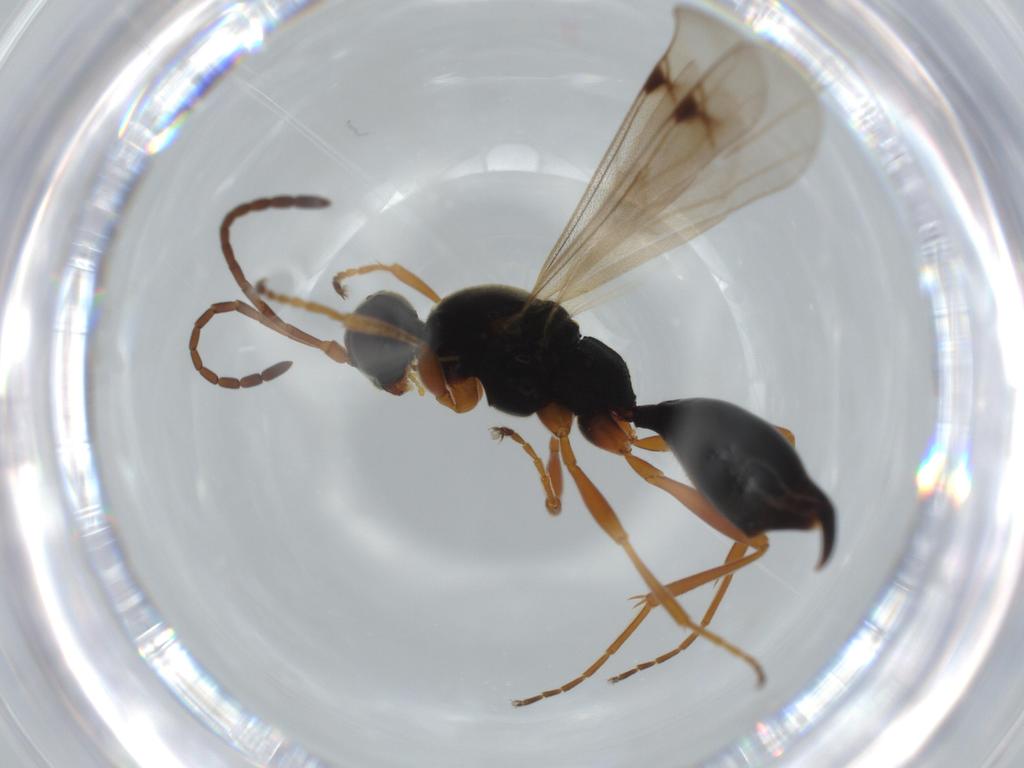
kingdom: Animalia
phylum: Arthropoda
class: Insecta
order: Hymenoptera
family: Proctotrupidae
